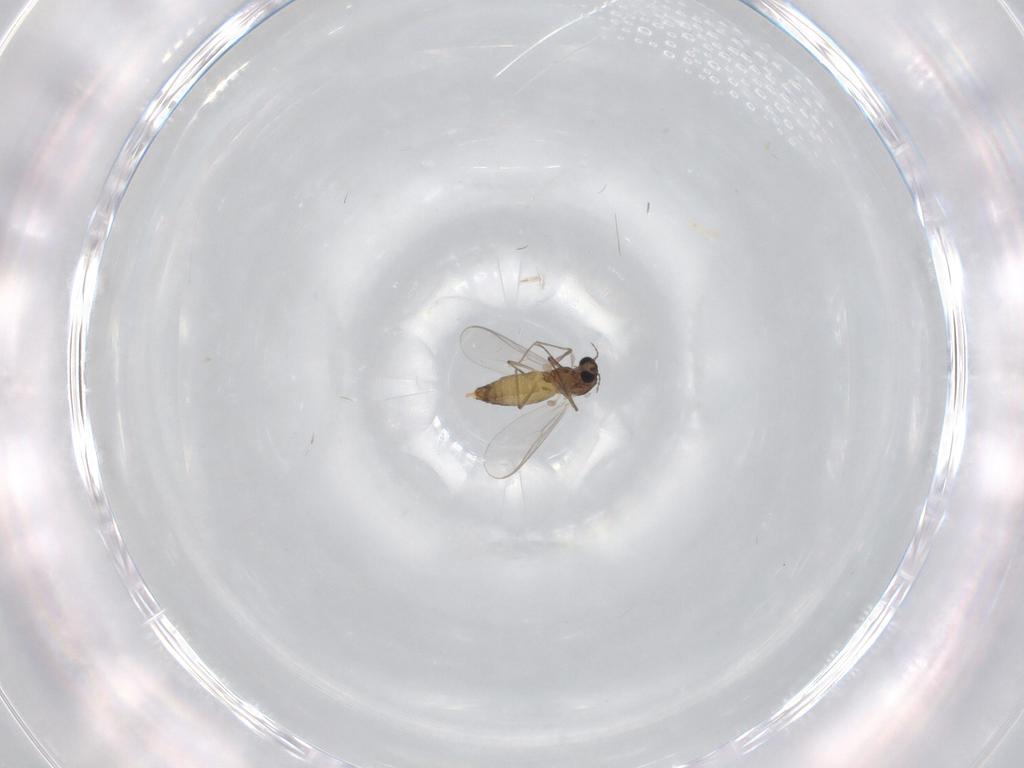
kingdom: Animalia
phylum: Arthropoda
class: Insecta
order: Diptera
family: Chironomidae
